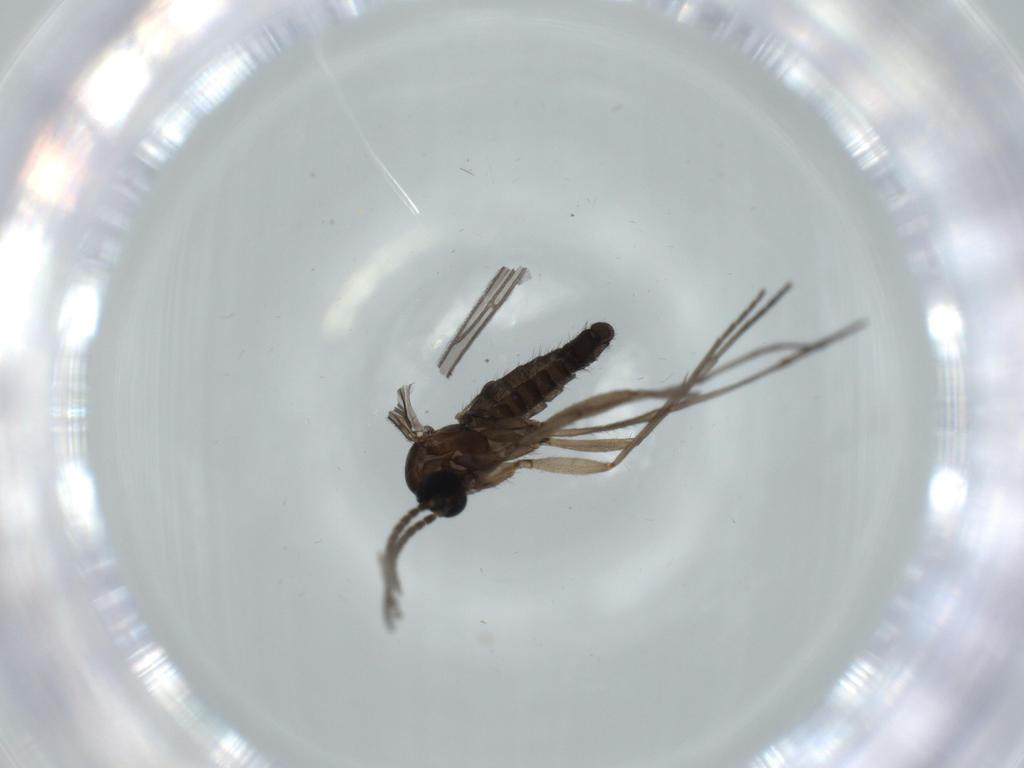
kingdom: Animalia
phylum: Arthropoda
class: Insecta
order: Diptera
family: Sciaridae
